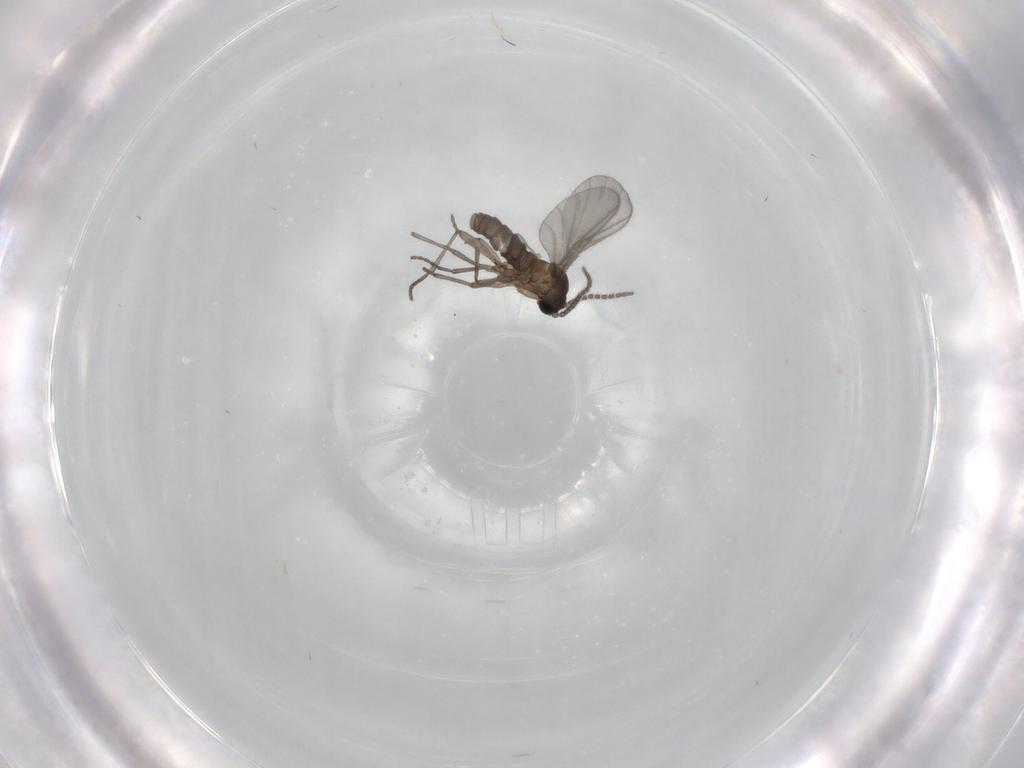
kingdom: Animalia
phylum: Arthropoda
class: Insecta
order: Diptera
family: Sciaridae
